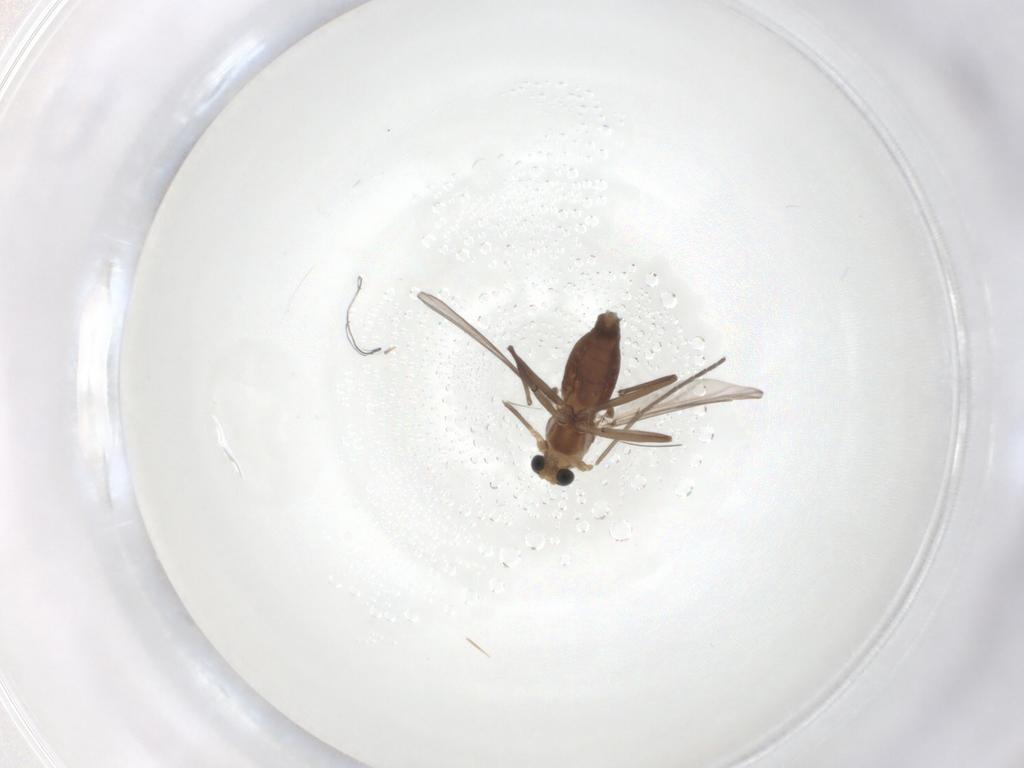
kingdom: Animalia
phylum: Arthropoda
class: Insecta
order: Diptera
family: Chironomidae
